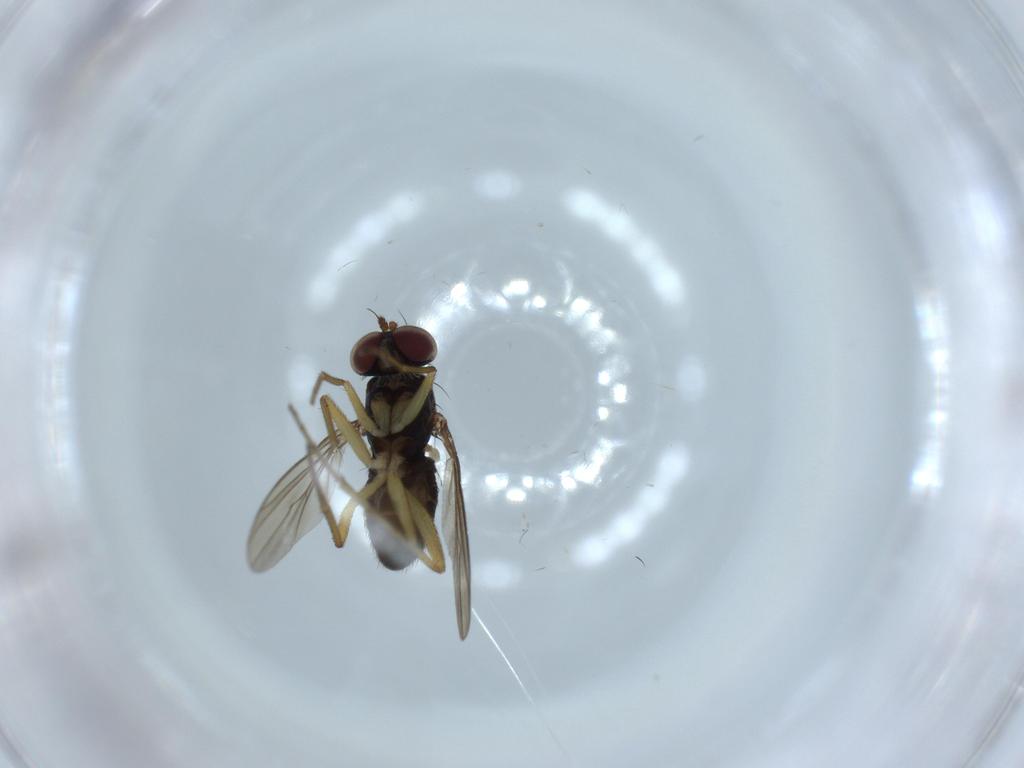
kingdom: Animalia
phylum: Arthropoda
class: Insecta
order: Diptera
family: Dolichopodidae
